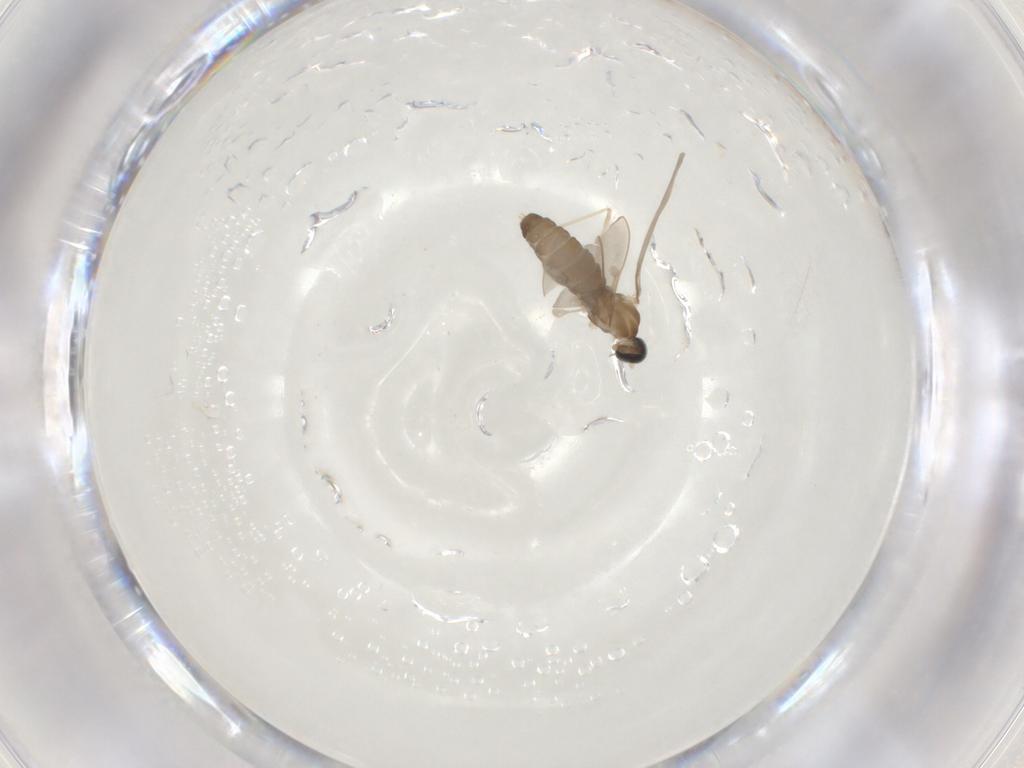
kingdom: Animalia
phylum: Arthropoda
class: Insecta
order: Diptera
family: Cecidomyiidae
